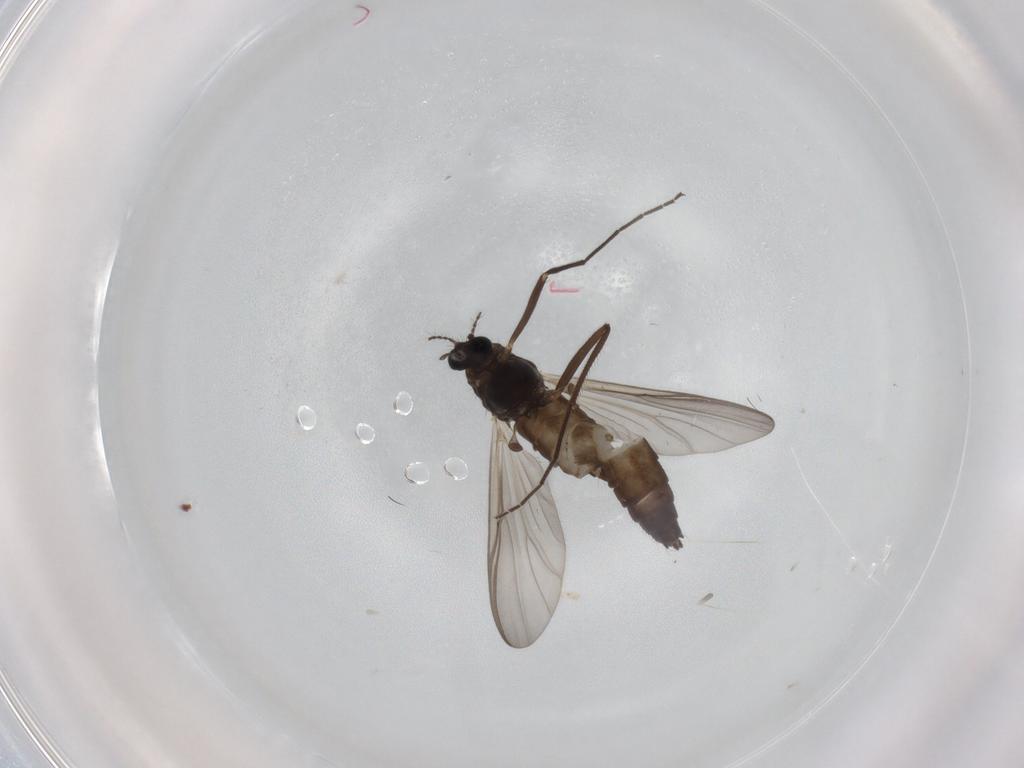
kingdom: Animalia
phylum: Arthropoda
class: Insecta
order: Diptera
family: Chironomidae
